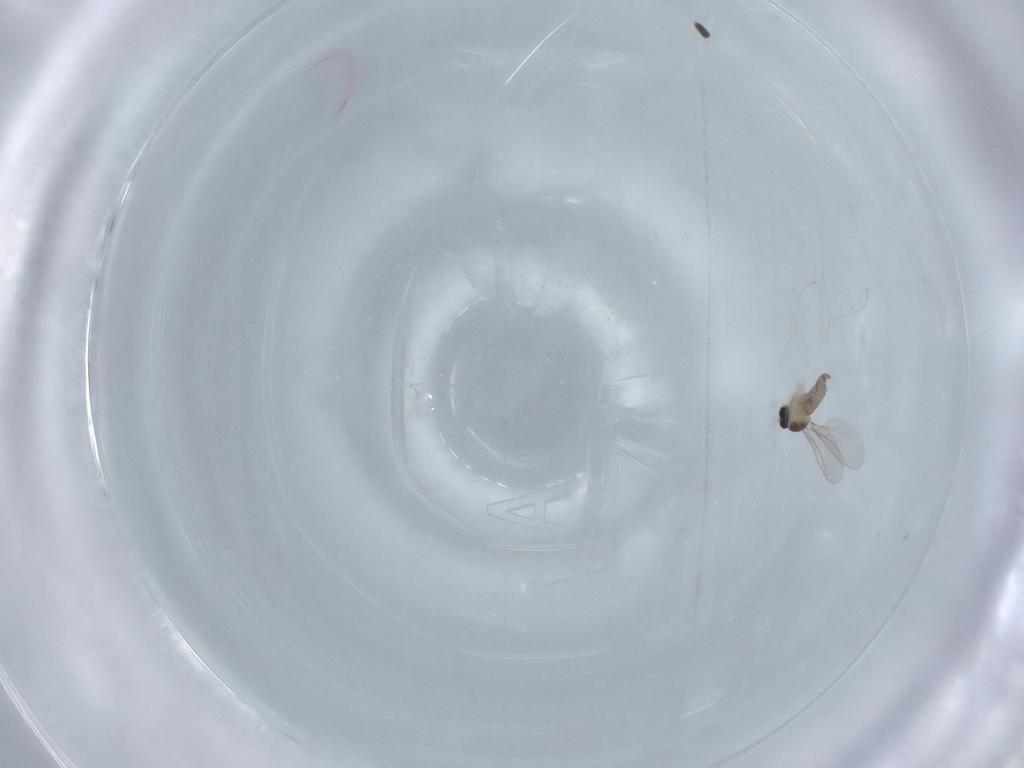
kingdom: Animalia
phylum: Arthropoda
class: Insecta
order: Diptera
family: Sciaridae
